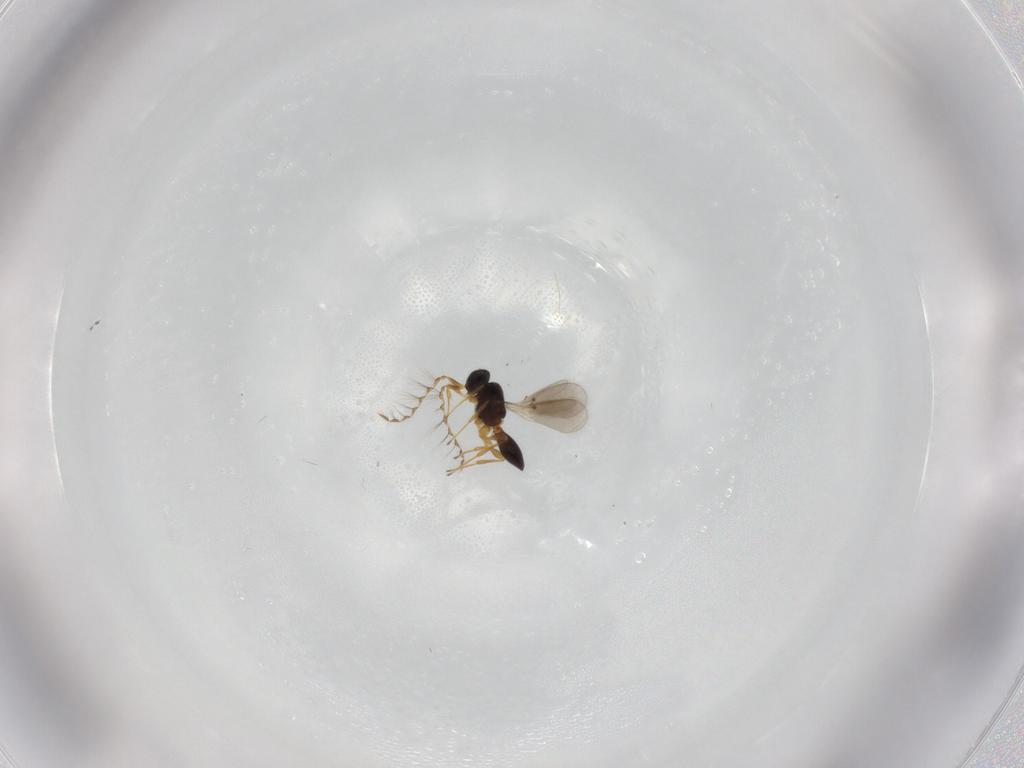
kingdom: Animalia
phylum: Arthropoda
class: Insecta
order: Hymenoptera
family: Platygastridae
